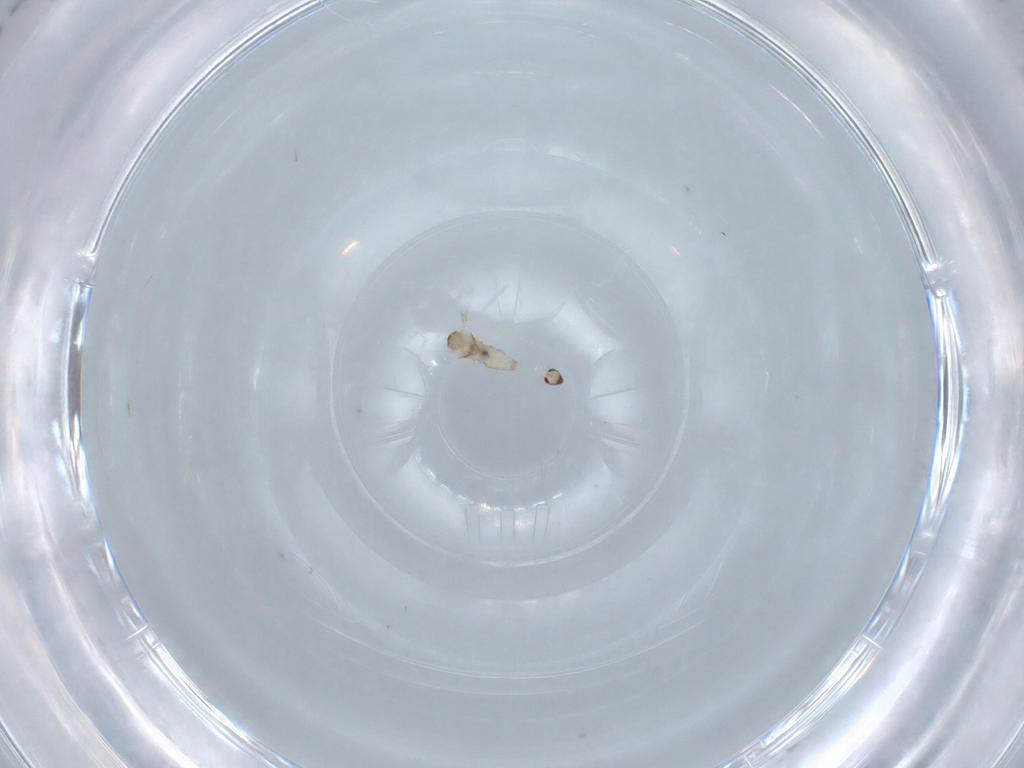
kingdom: Animalia
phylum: Arthropoda
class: Insecta
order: Diptera
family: Cecidomyiidae
